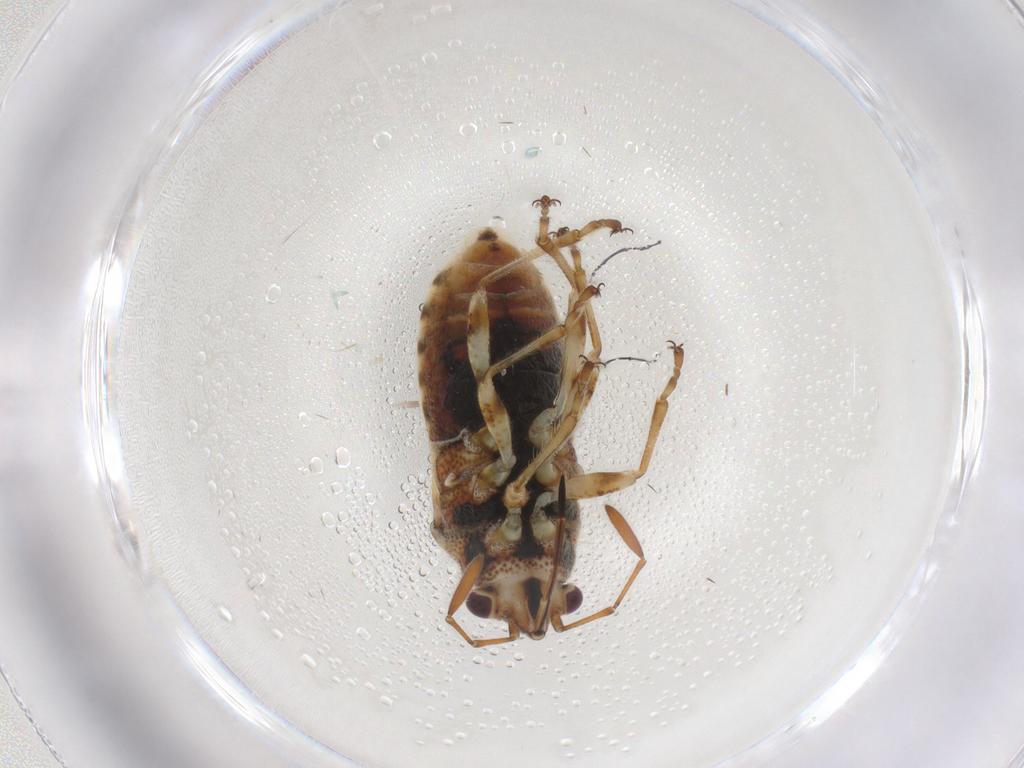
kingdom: Animalia
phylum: Arthropoda
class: Insecta
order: Hemiptera
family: Lygaeidae
